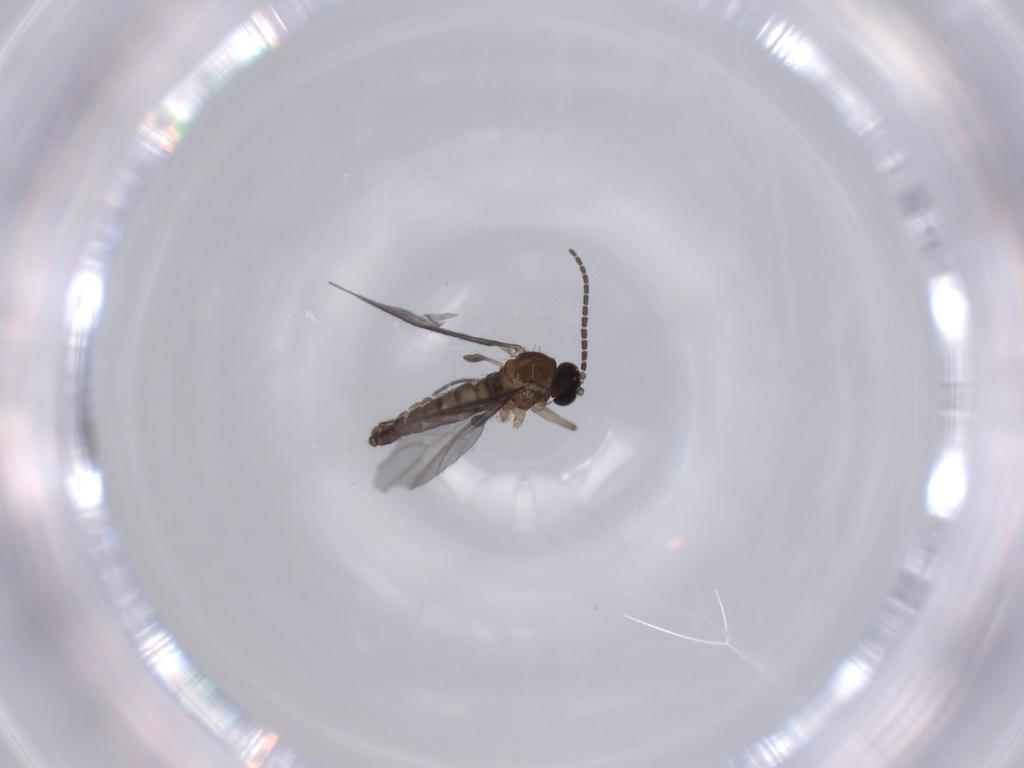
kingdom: Animalia
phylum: Arthropoda
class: Insecta
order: Diptera
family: Sciaridae
